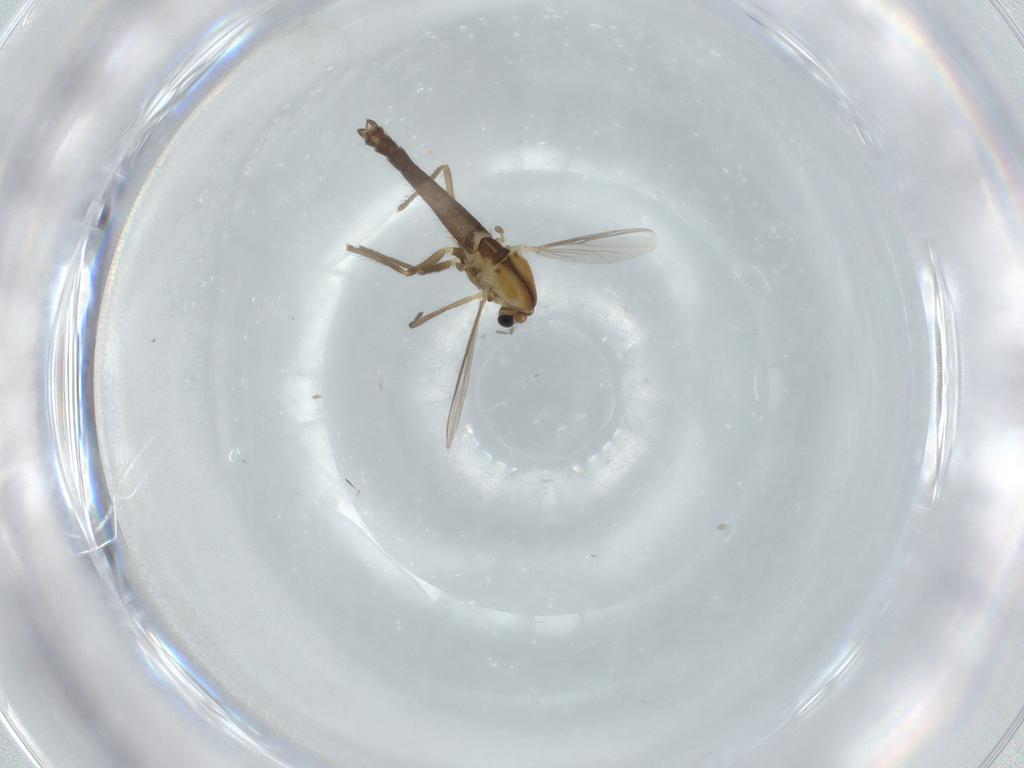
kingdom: Animalia
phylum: Arthropoda
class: Insecta
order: Diptera
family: Chironomidae
